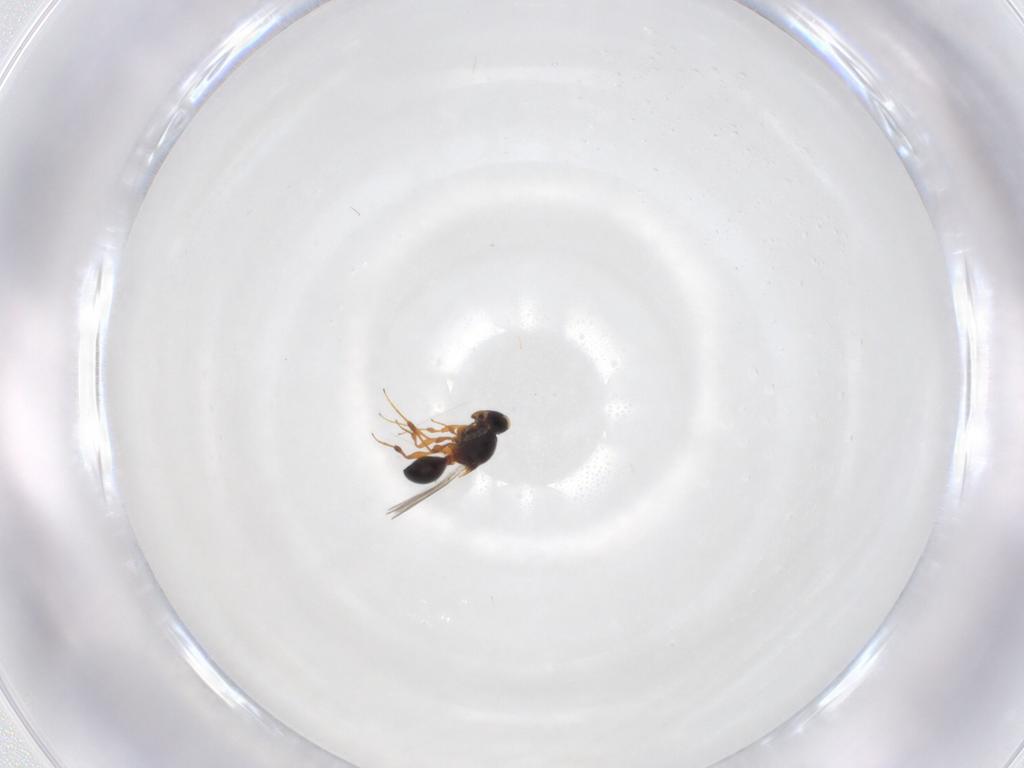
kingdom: Animalia
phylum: Arthropoda
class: Insecta
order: Hymenoptera
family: Platygastridae
